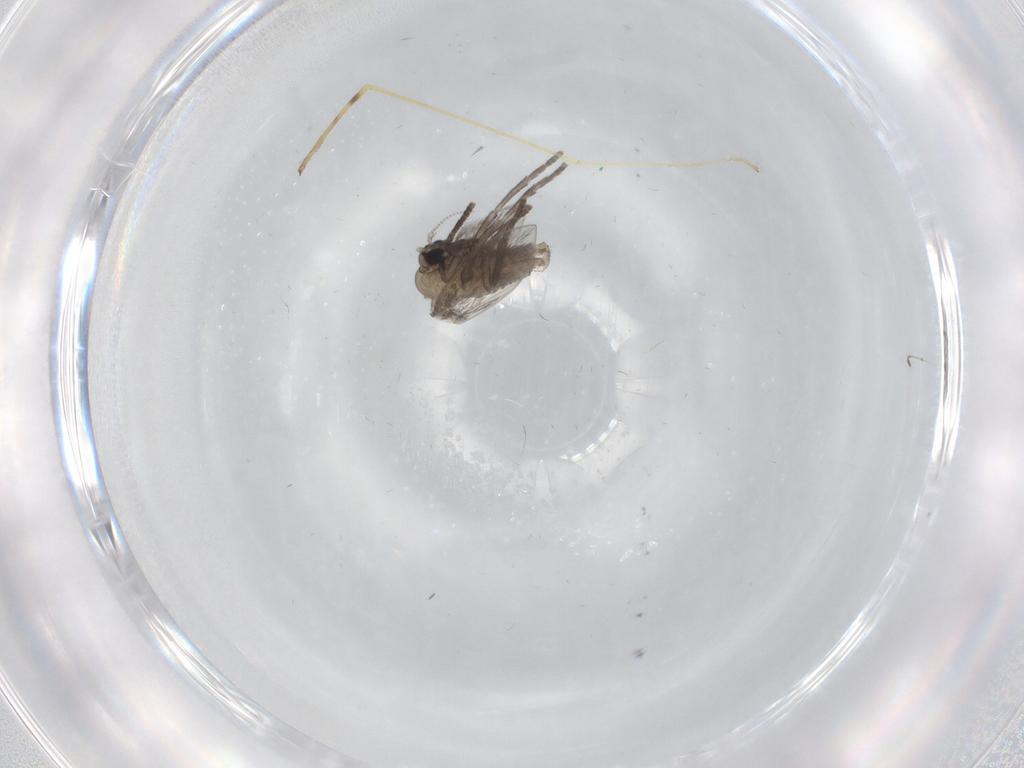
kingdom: Animalia
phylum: Arthropoda
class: Insecta
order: Diptera
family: Psychodidae
